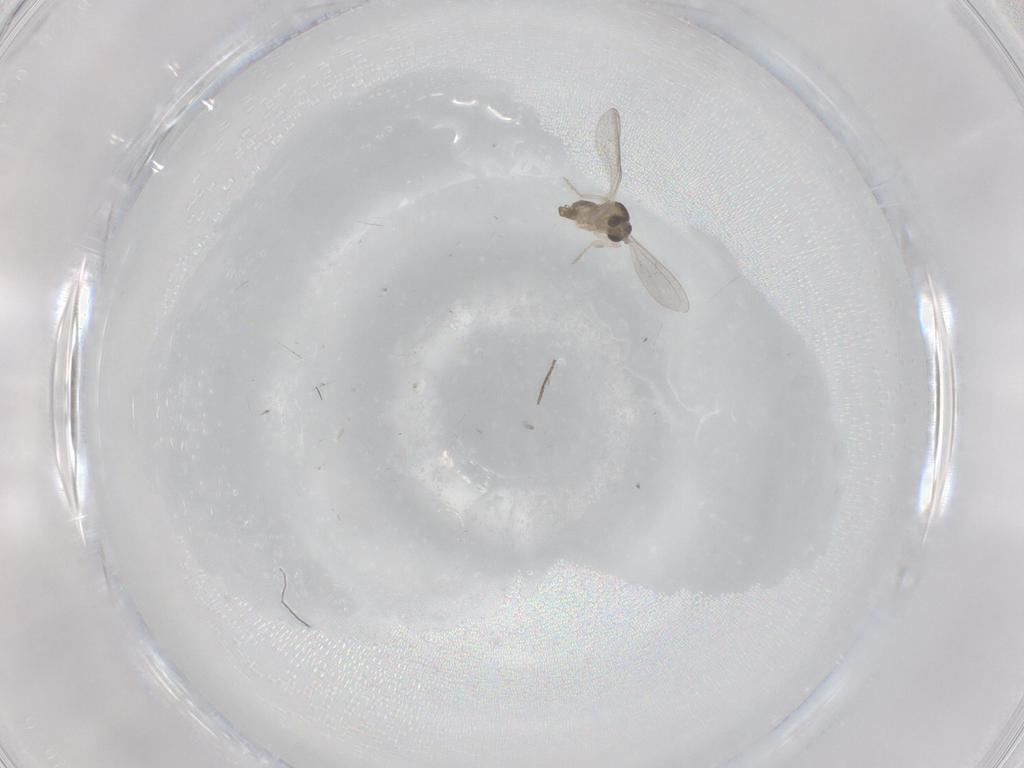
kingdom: Animalia
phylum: Arthropoda
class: Insecta
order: Diptera
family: Cecidomyiidae
